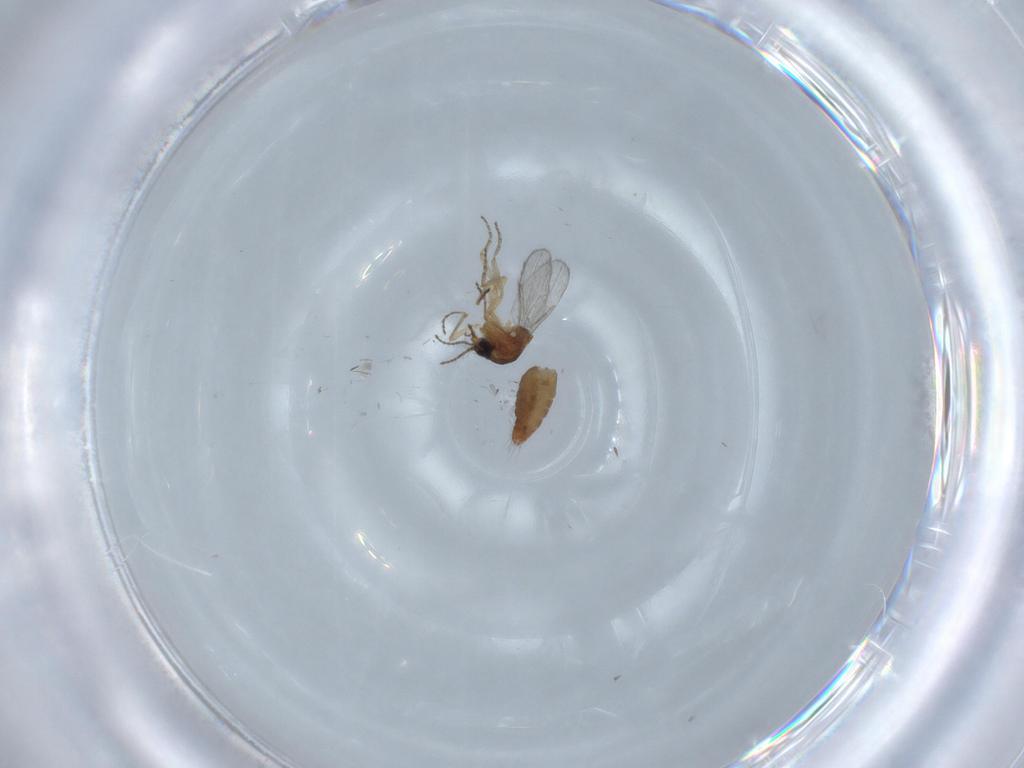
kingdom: Animalia
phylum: Arthropoda
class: Insecta
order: Diptera
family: Ceratopogonidae
